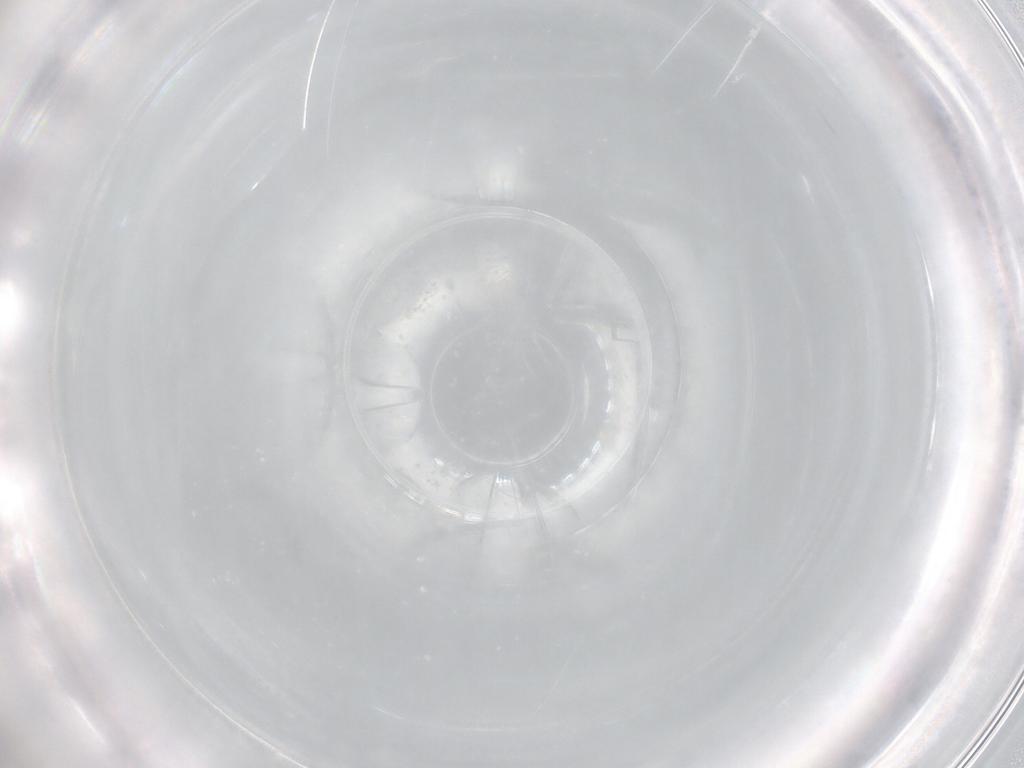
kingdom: Animalia
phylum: Arthropoda
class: Arachnida
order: Trombidiformes
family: Eupodidae
